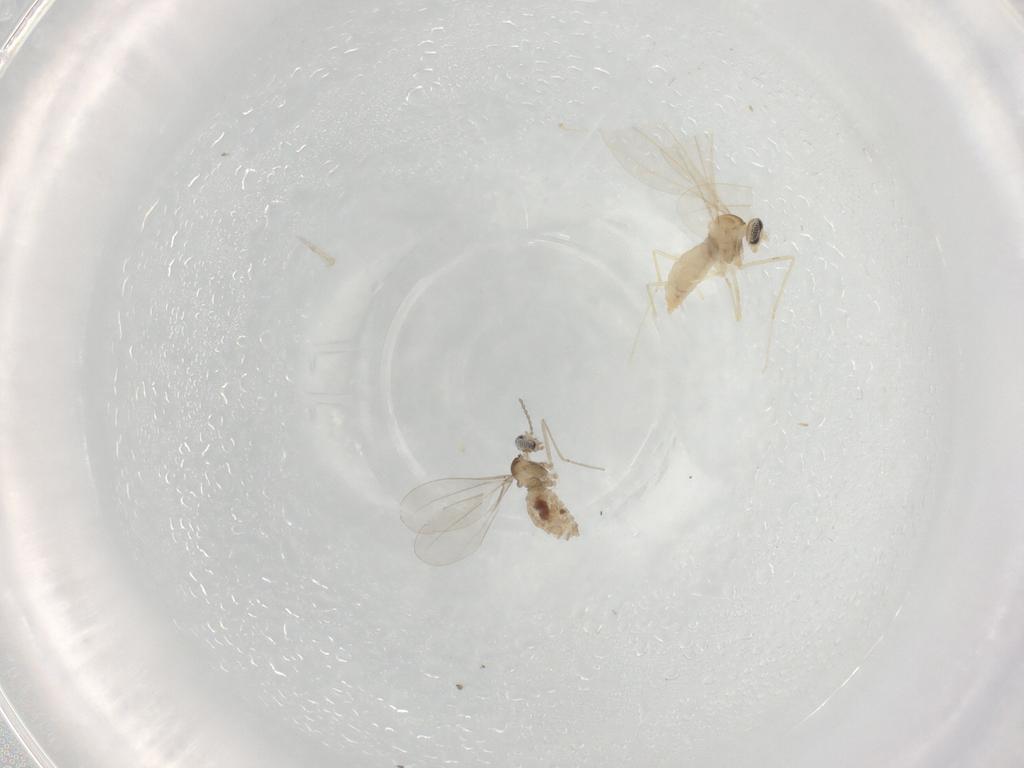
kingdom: Animalia
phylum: Arthropoda
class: Insecta
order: Diptera
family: Cecidomyiidae
